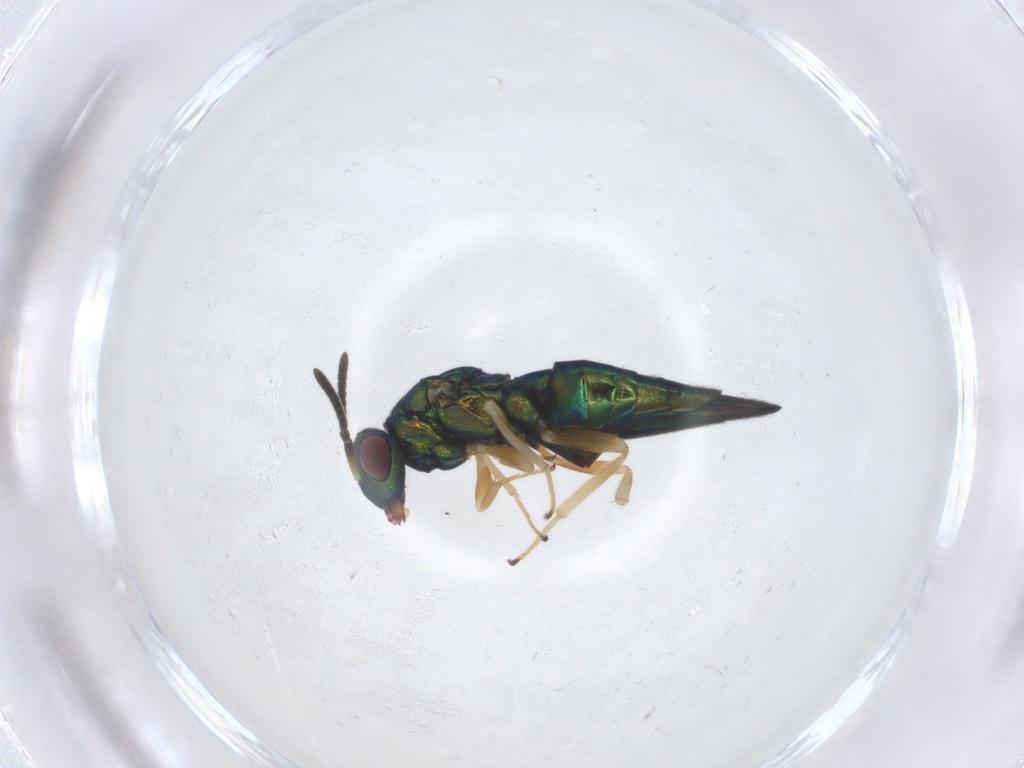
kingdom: Animalia
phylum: Arthropoda
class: Insecta
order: Hymenoptera
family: Pteromalidae
